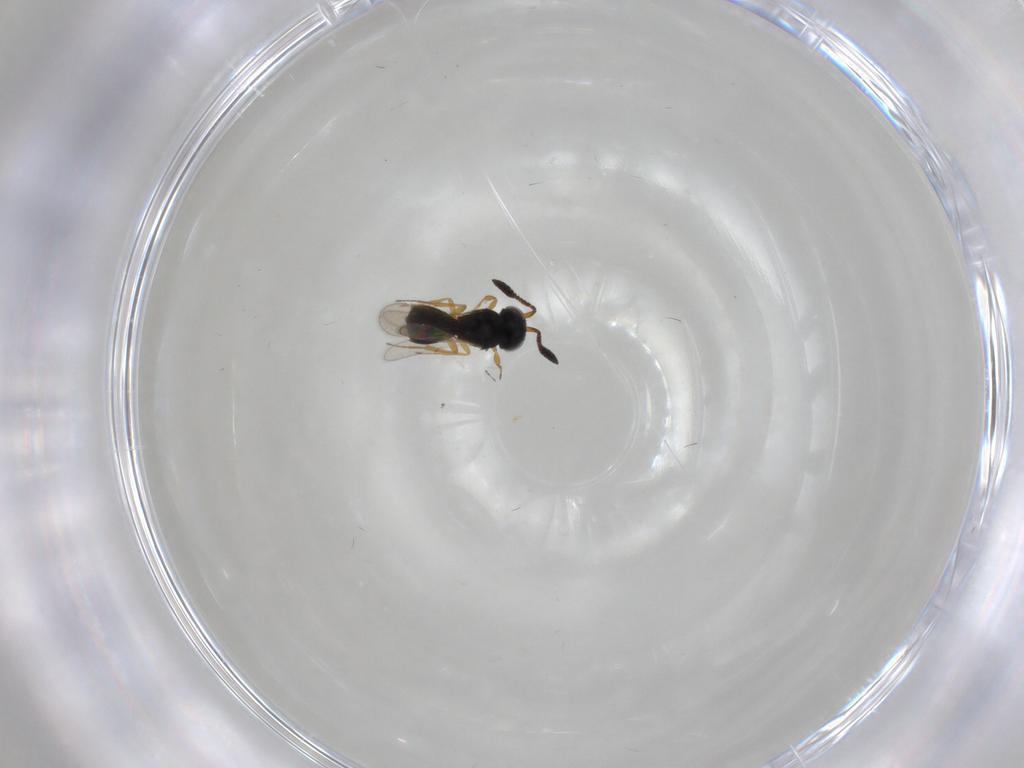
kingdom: Animalia
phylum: Arthropoda
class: Insecta
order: Hymenoptera
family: Scelionidae
